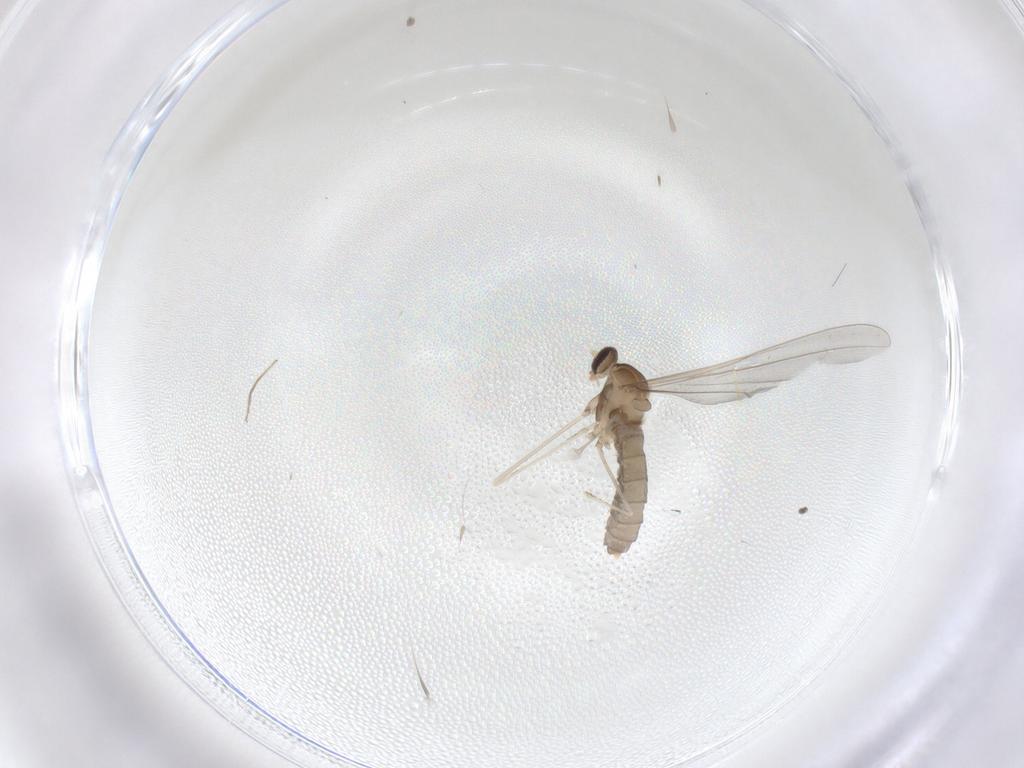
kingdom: Animalia
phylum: Arthropoda
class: Insecta
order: Diptera
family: Cecidomyiidae
